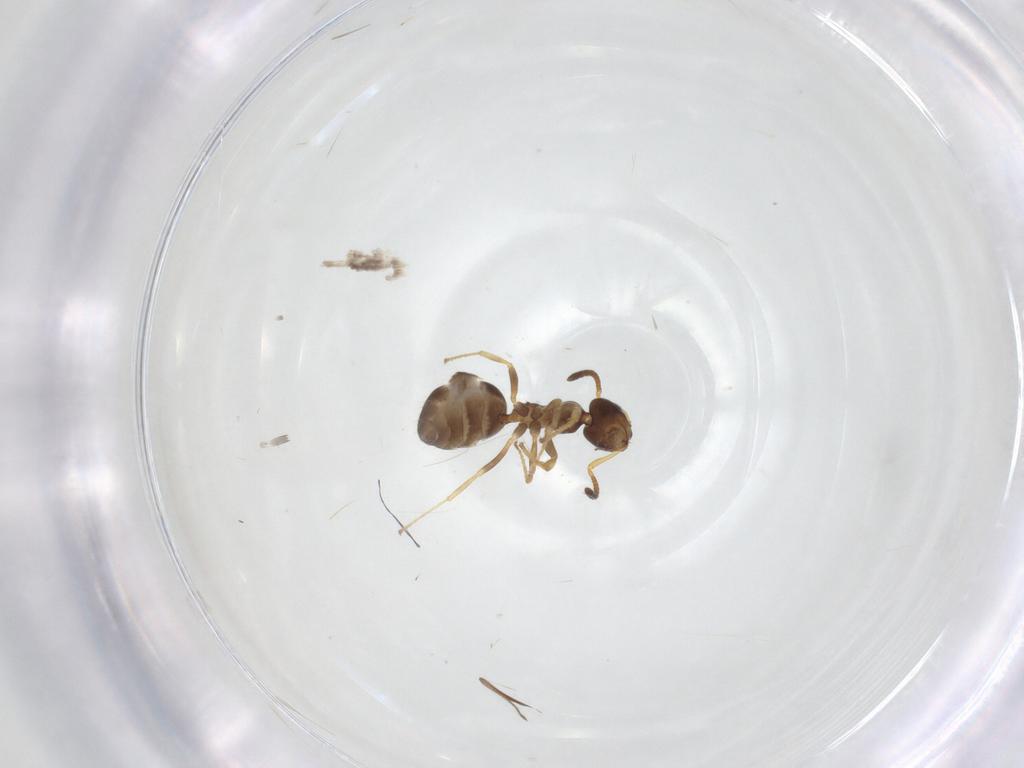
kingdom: Animalia
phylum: Arthropoda
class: Insecta
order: Hymenoptera
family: Formicidae
